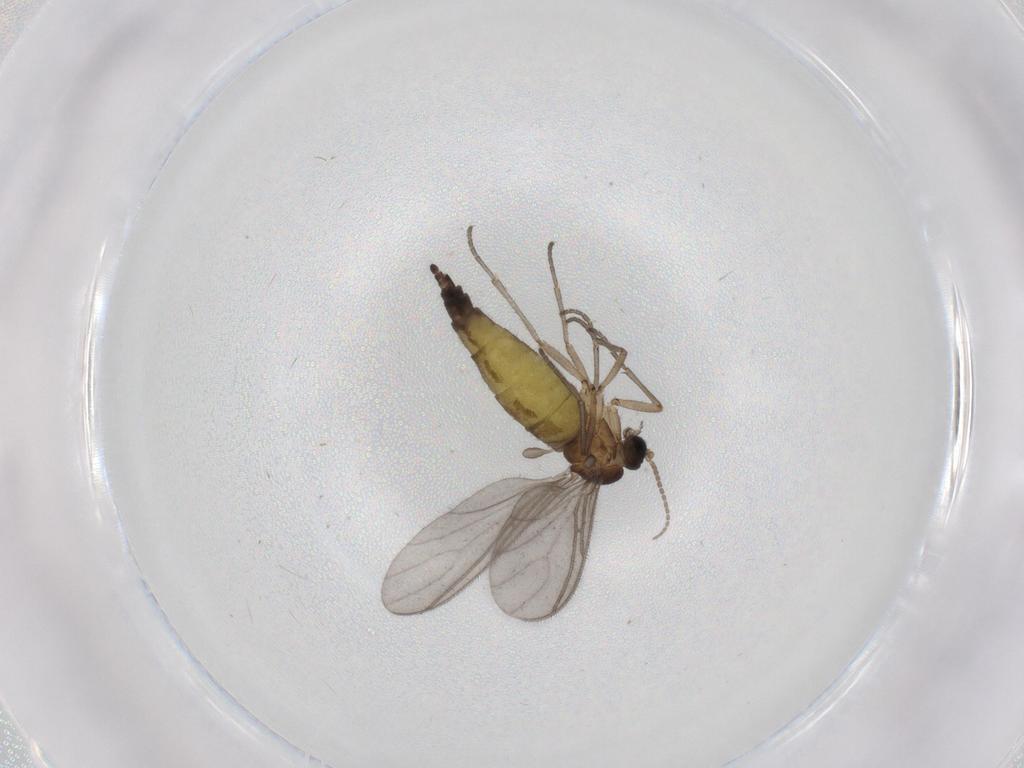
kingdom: Animalia
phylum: Arthropoda
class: Insecta
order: Diptera
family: Sciaridae
